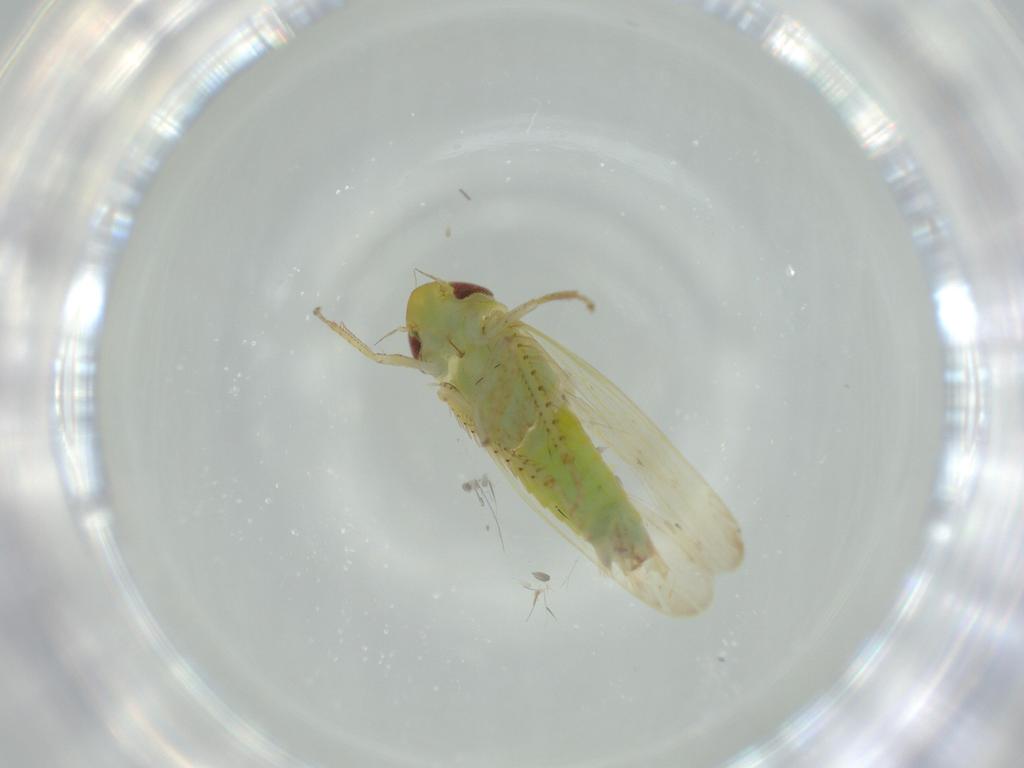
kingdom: Animalia
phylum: Arthropoda
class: Insecta
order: Hemiptera
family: Cicadellidae
